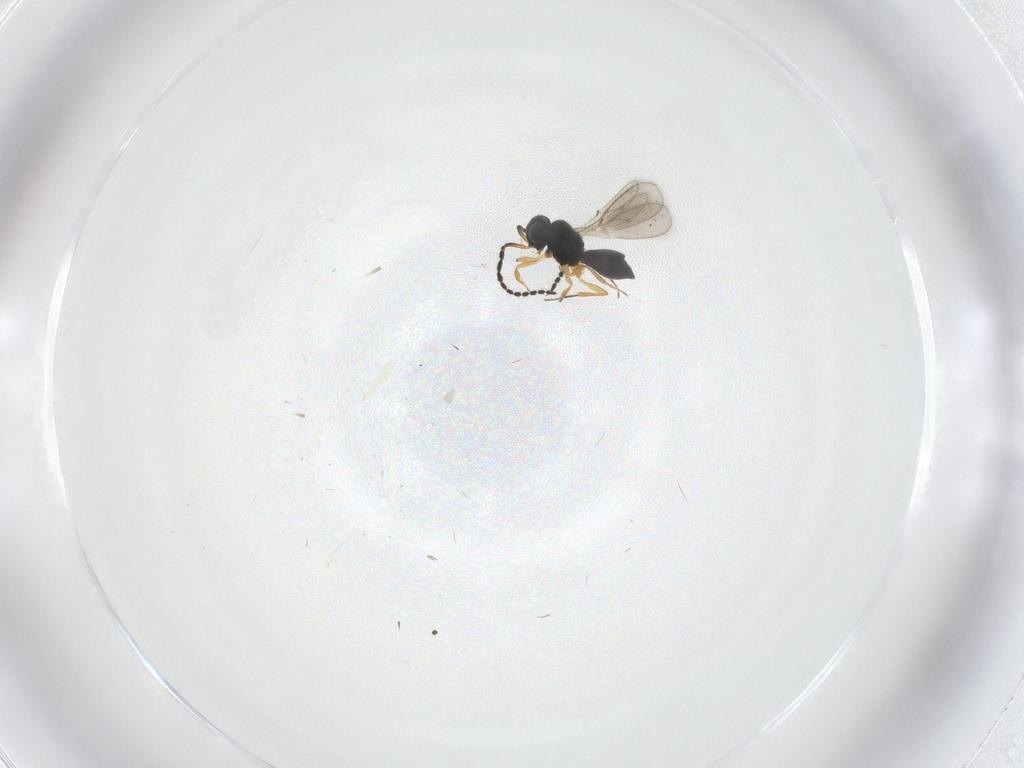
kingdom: Animalia
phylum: Arthropoda
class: Insecta
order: Hymenoptera
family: Scelionidae
